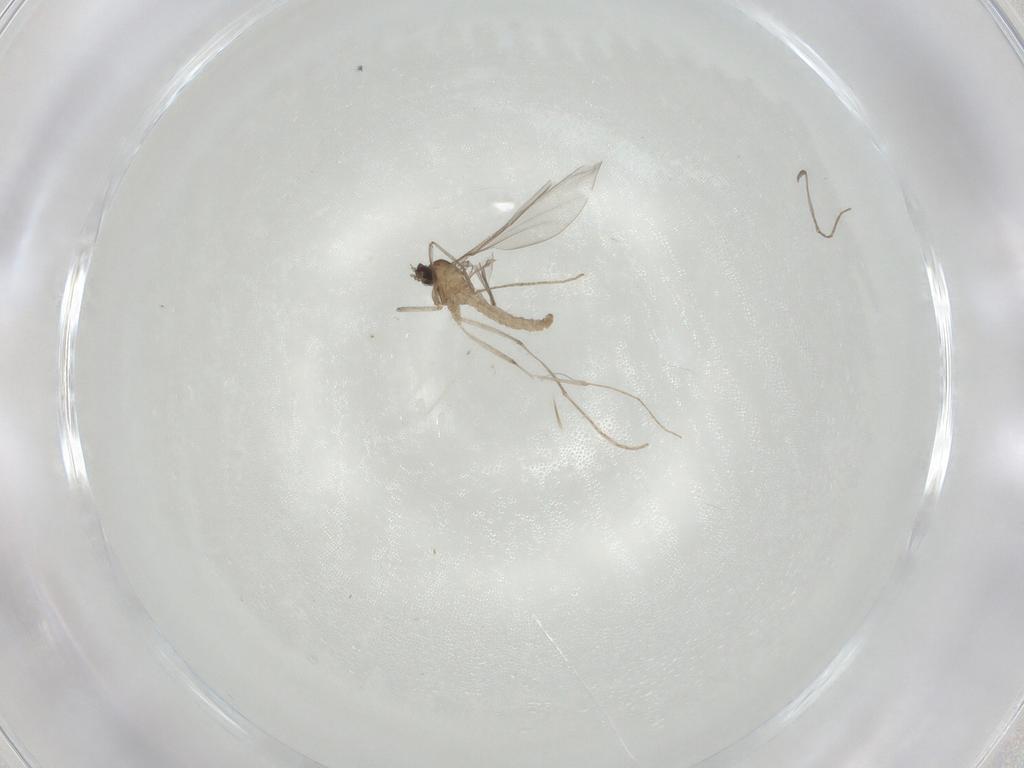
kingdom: Animalia
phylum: Arthropoda
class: Insecta
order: Diptera
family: Cecidomyiidae
